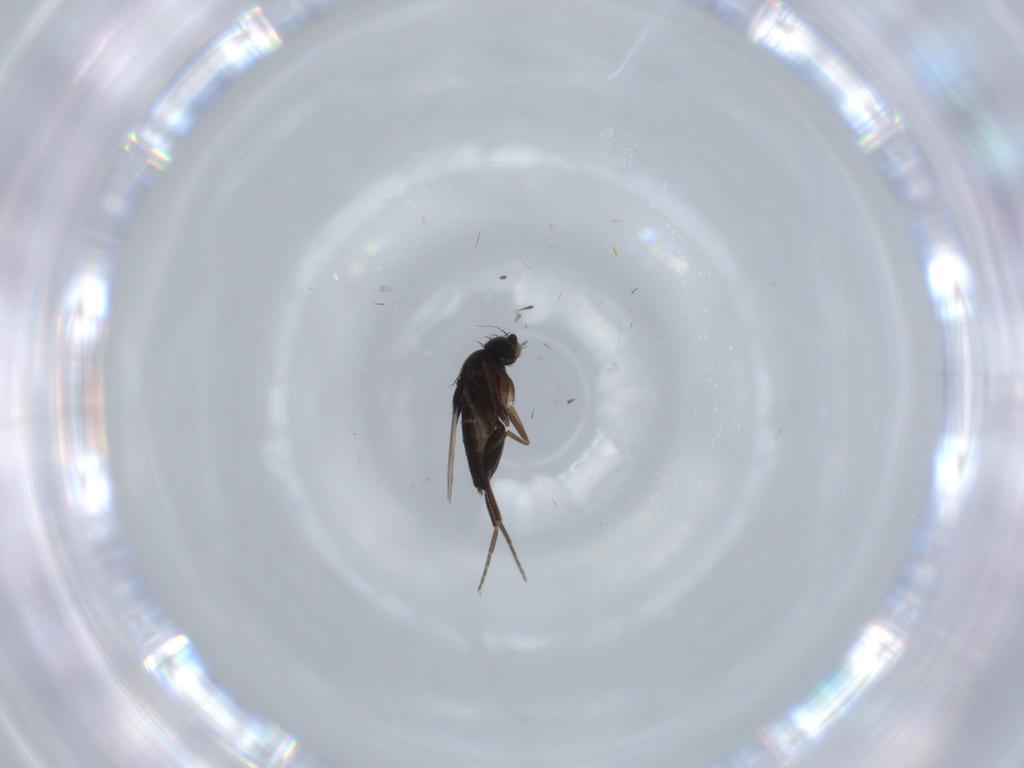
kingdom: Animalia
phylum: Arthropoda
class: Insecta
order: Diptera
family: Phoridae
